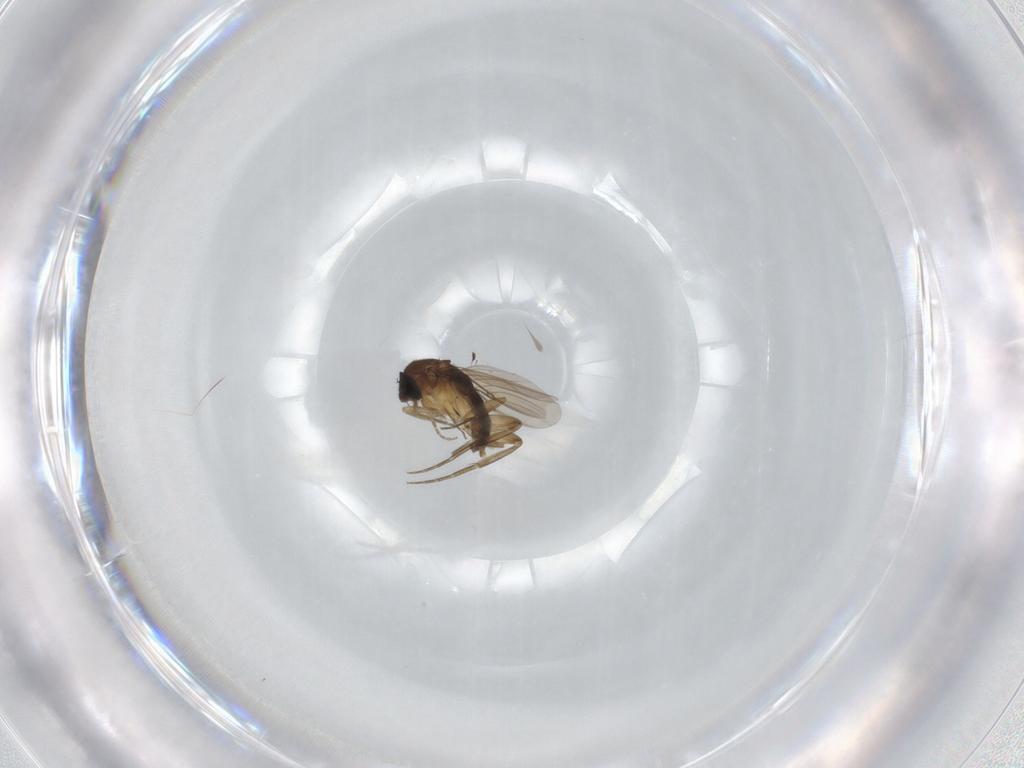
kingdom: Animalia
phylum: Arthropoda
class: Insecta
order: Diptera
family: Phoridae
